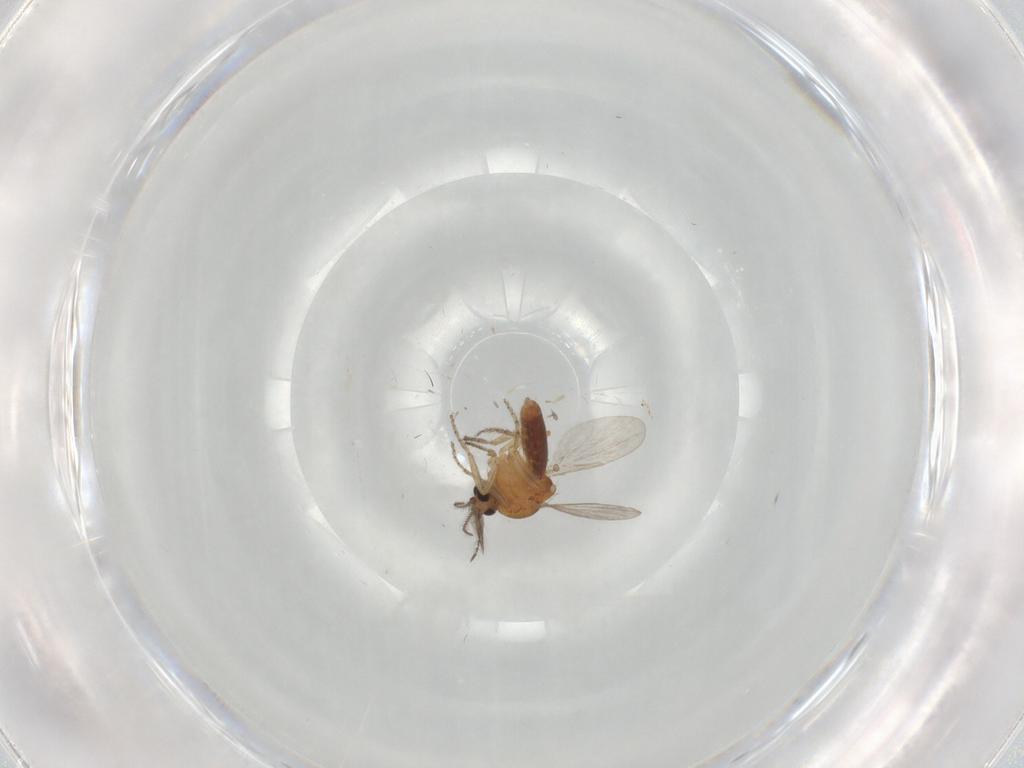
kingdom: Animalia
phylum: Arthropoda
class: Insecta
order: Diptera
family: Ceratopogonidae
